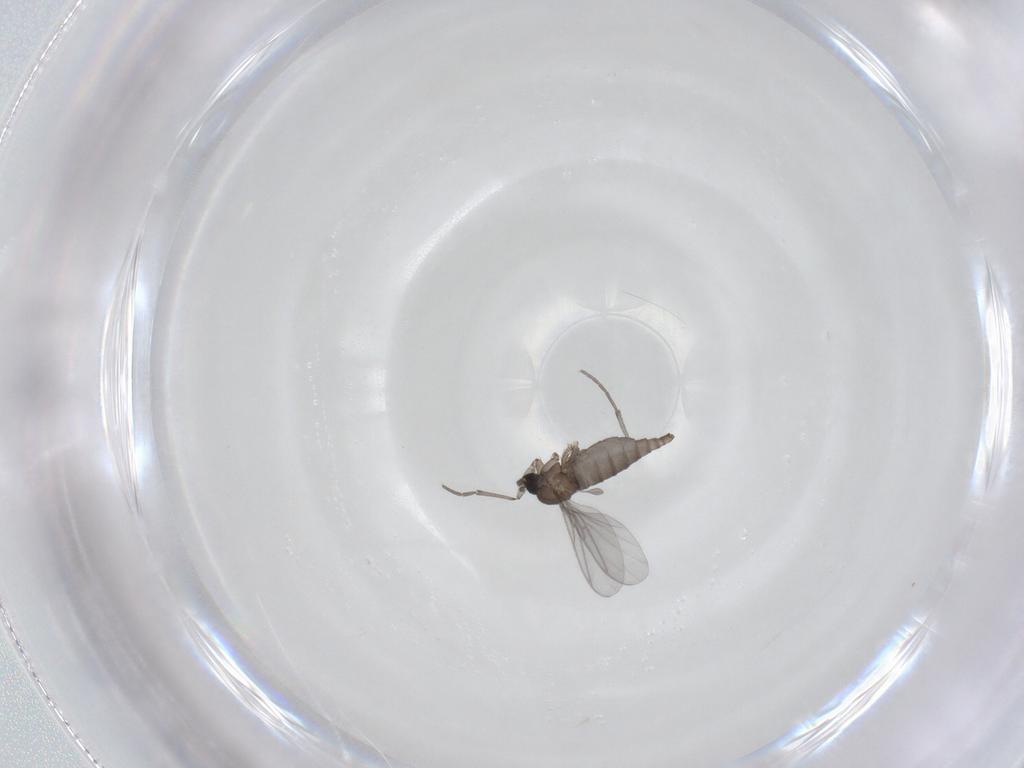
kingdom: Animalia
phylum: Arthropoda
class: Insecta
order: Diptera
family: Sciaridae
